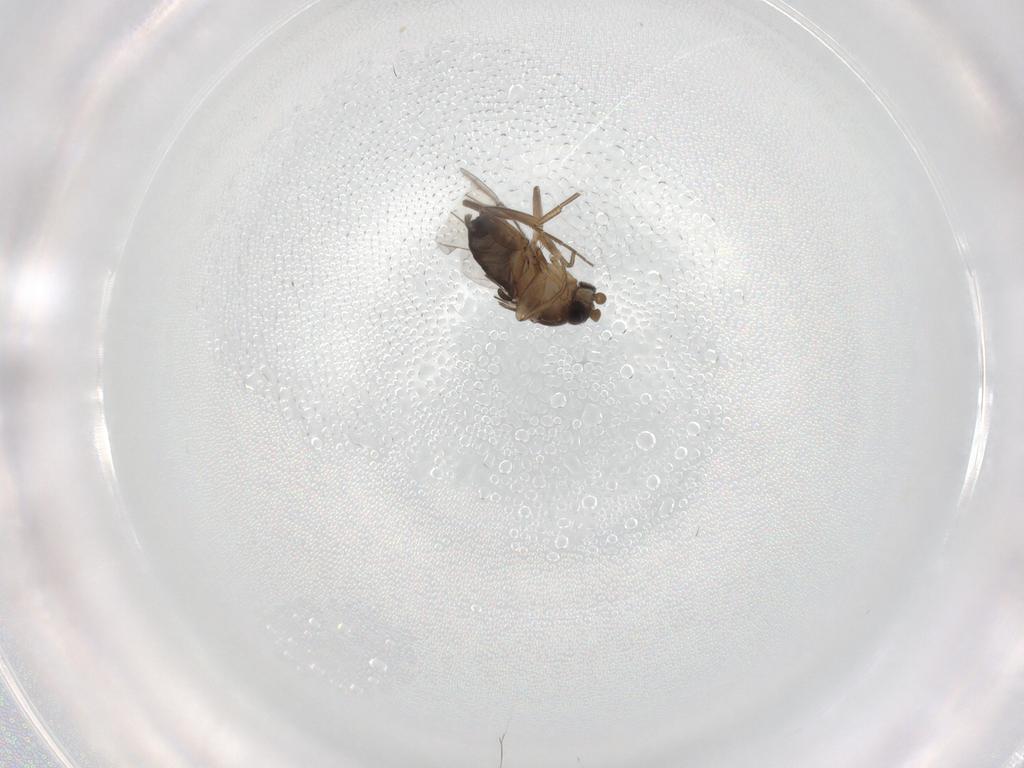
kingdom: Animalia
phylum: Arthropoda
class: Insecta
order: Diptera
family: Phoridae
